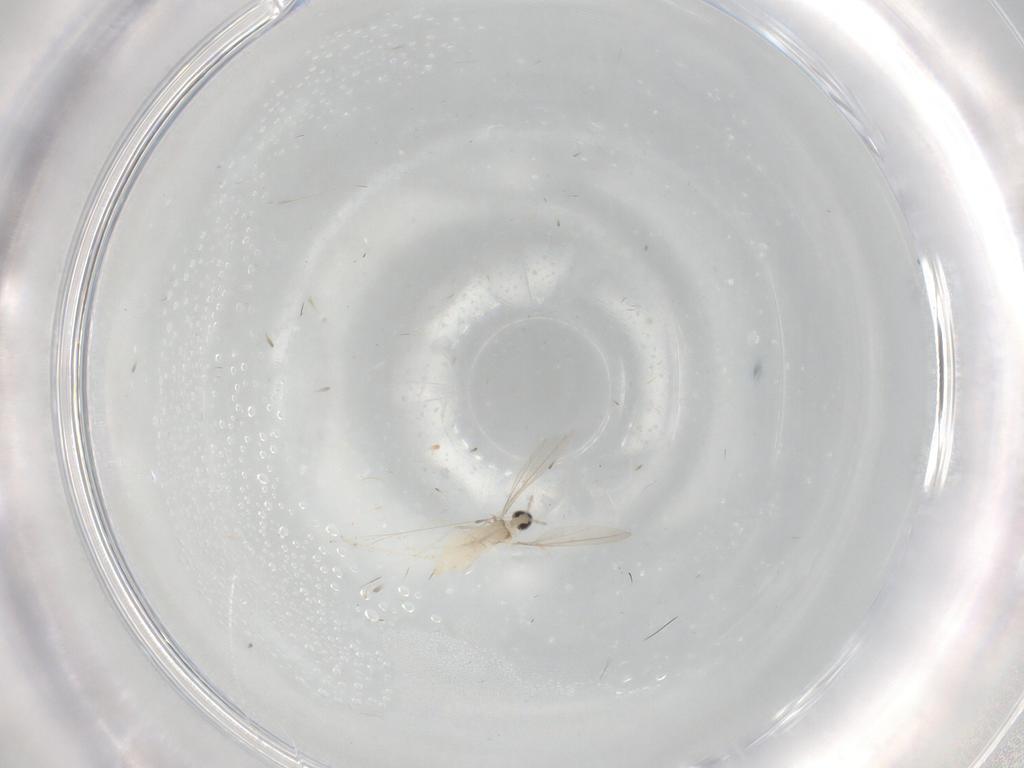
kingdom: Animalia
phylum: Arthropoda
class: Insecta
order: Diptera
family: Cecidomyiidae
